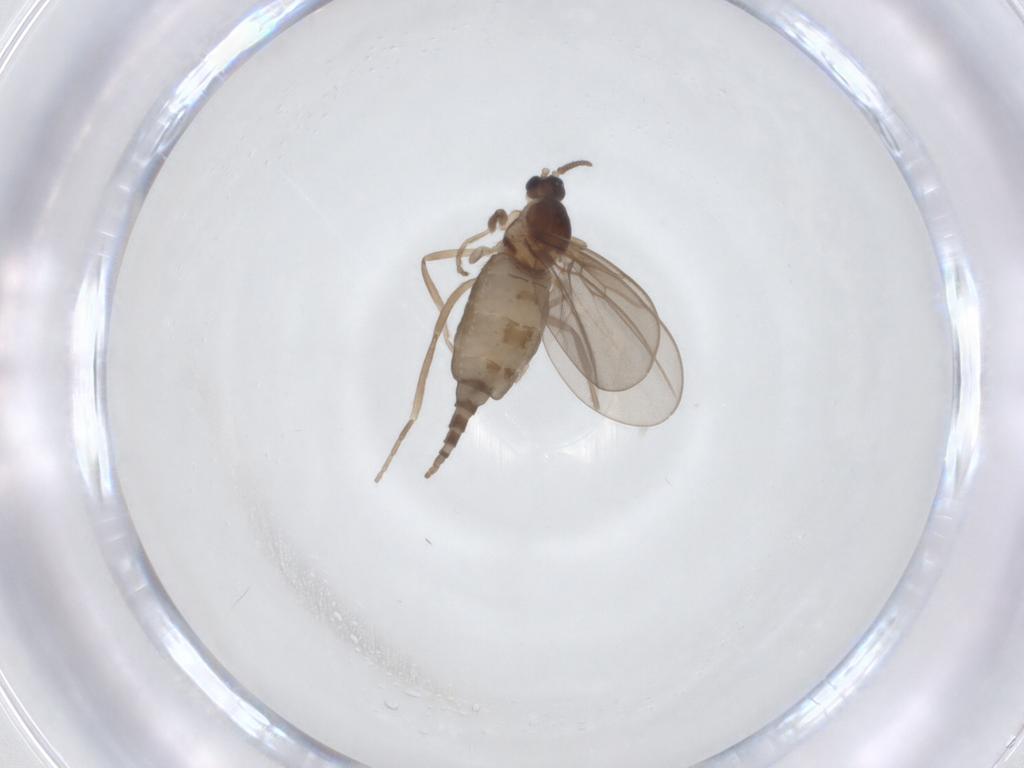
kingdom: Animalia
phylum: Arthropoda
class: Insecta
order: Diptera
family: Cecidomyiidae
